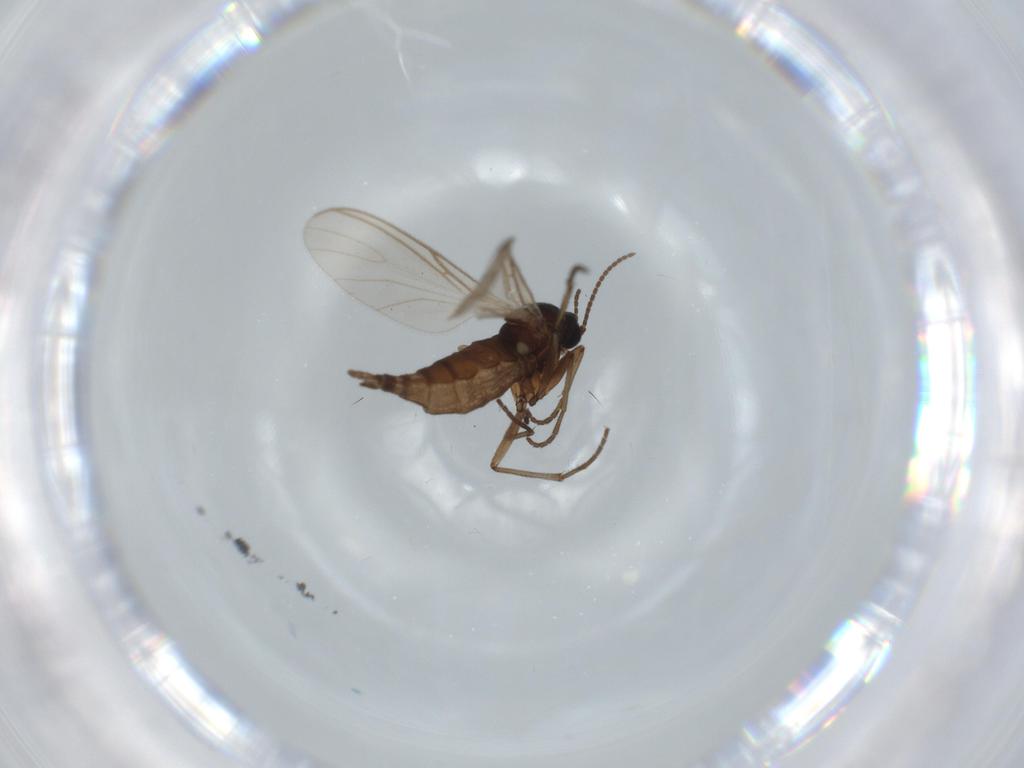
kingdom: Animalia
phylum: Arthropoda
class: Insecta
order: Diptera
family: Sciaridae
